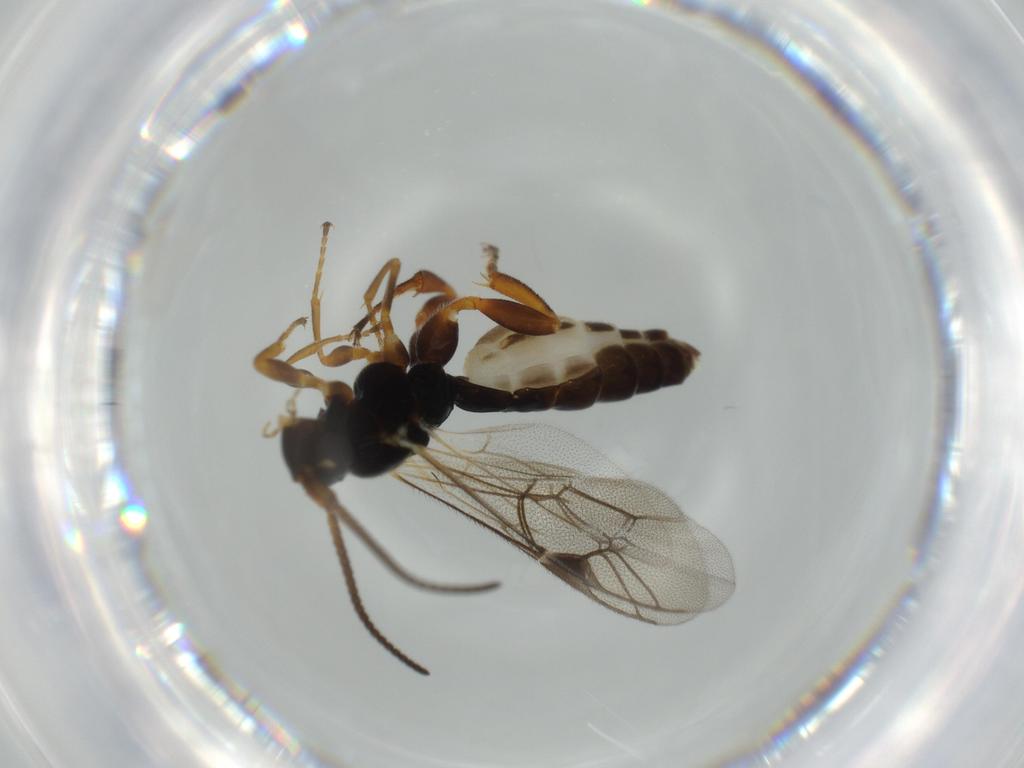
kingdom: Animalia
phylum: Arthropoda
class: Insecta
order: Hymenoptera
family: Ichneumonidae
